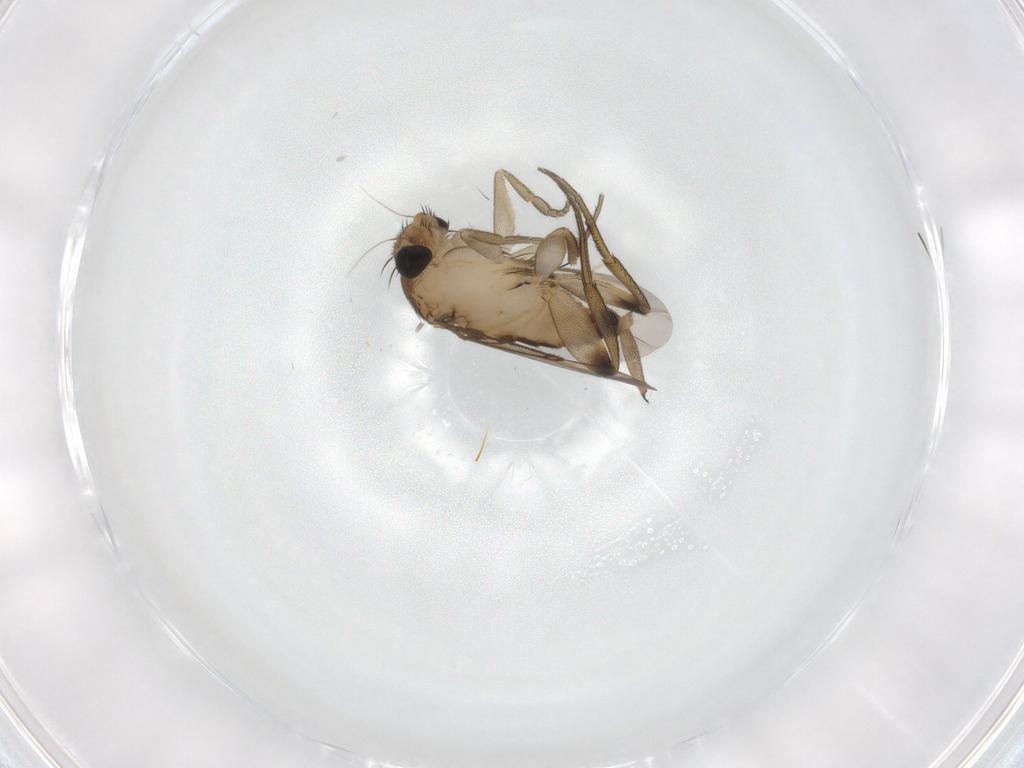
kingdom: Animalia
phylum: Arthropoda
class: Insecta
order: Diptera
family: Phoridae
